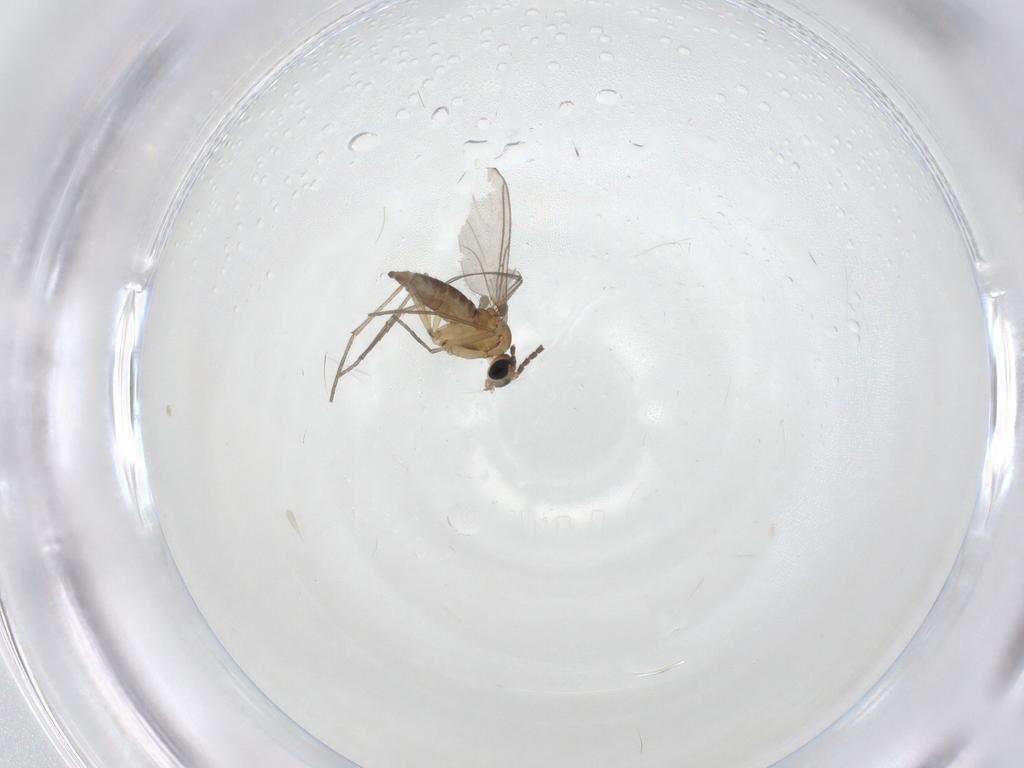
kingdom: Animalia
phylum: Arthropoda
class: Insecta
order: Diptera
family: Sciaridae
